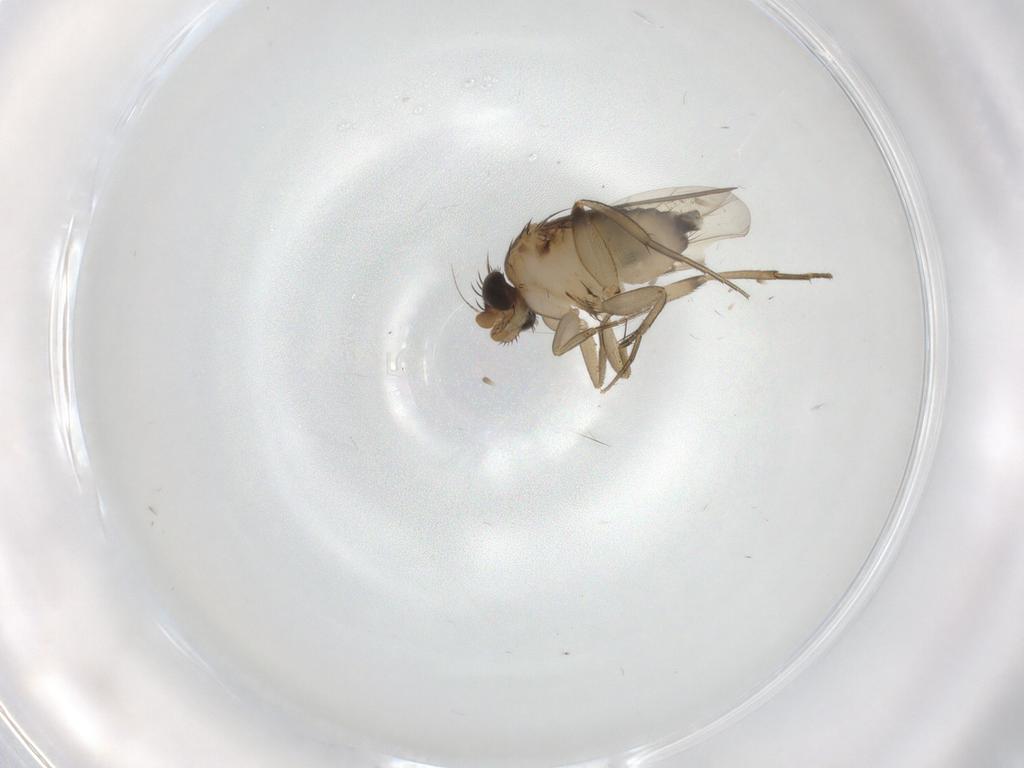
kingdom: Animalia
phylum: Arthropoda
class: Insecta
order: Diptera
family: Phoridae
